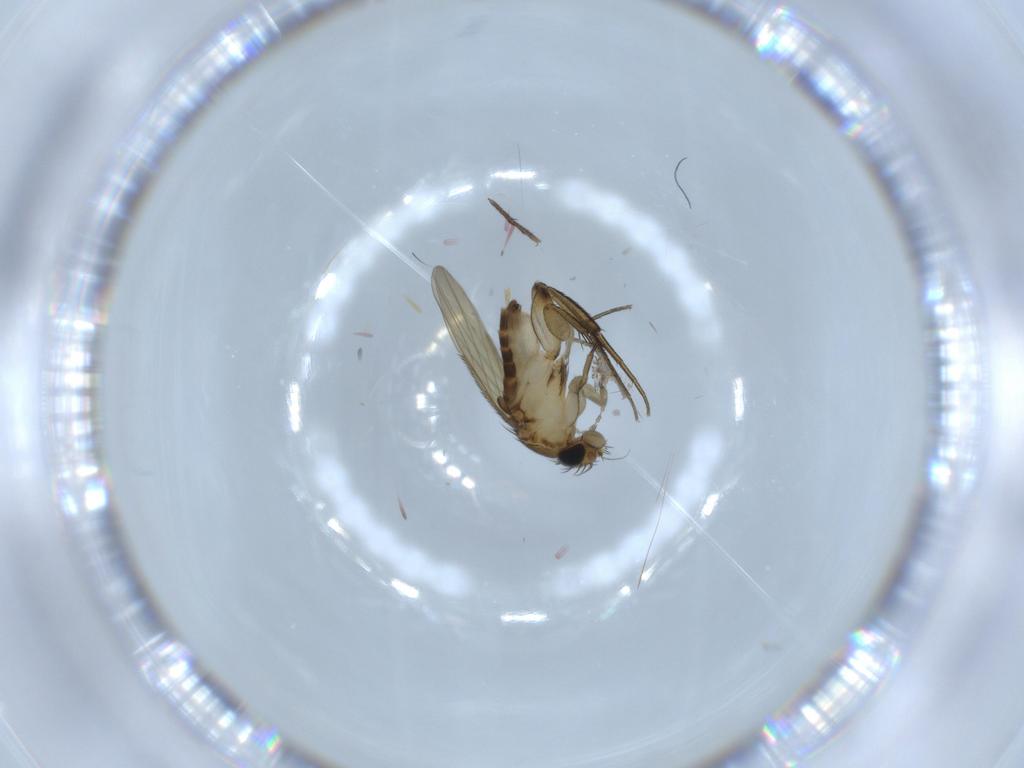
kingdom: Animalia
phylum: Arthropoda
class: Insecta
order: Diptera
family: Phoridae
